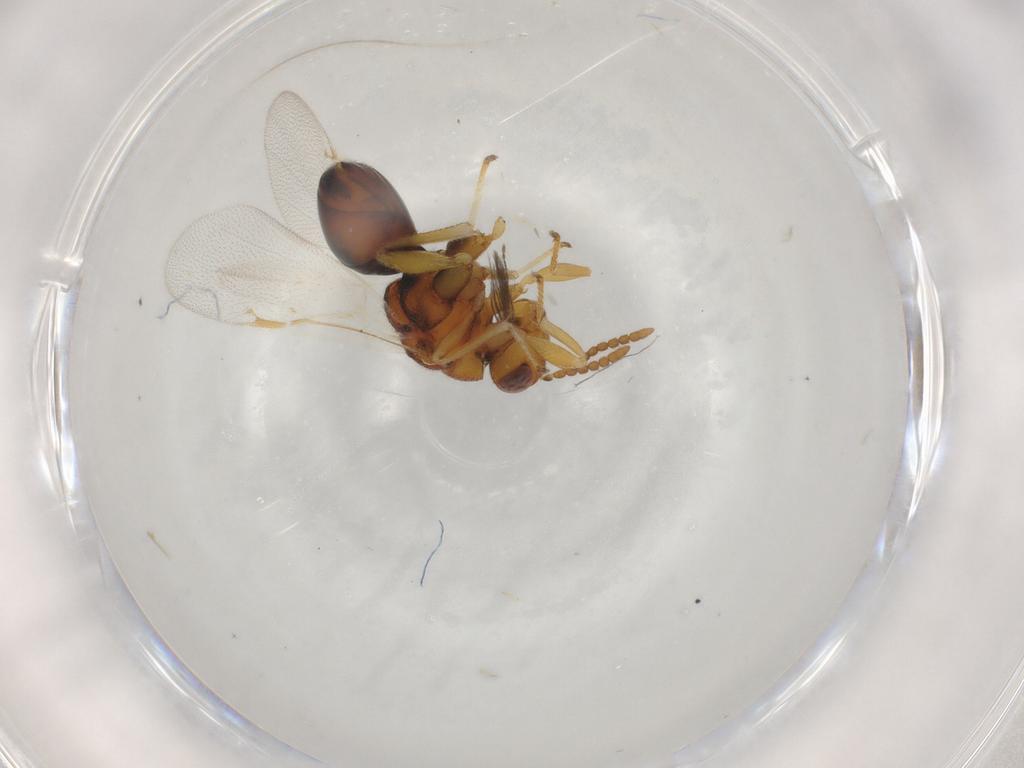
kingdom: Animalia
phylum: Arthropoda
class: Insecta
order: Hymenoptera
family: Eurytomidae
